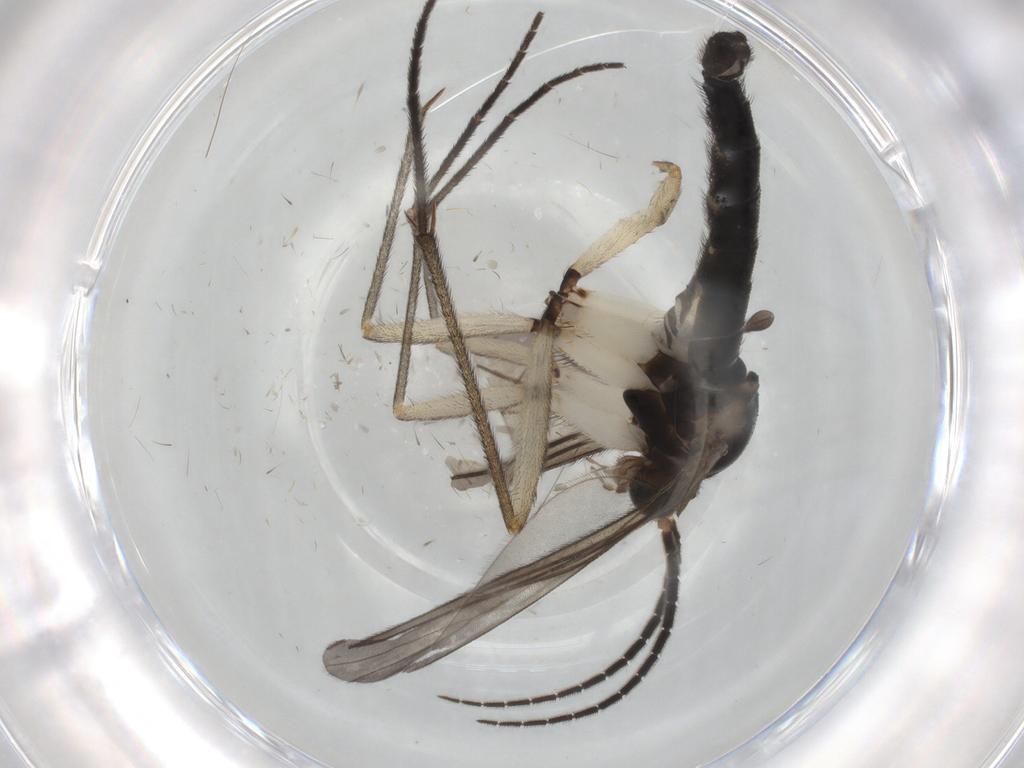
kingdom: Animalia
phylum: Arthropoda
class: Insecta
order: Diptera
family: Sciaridae
